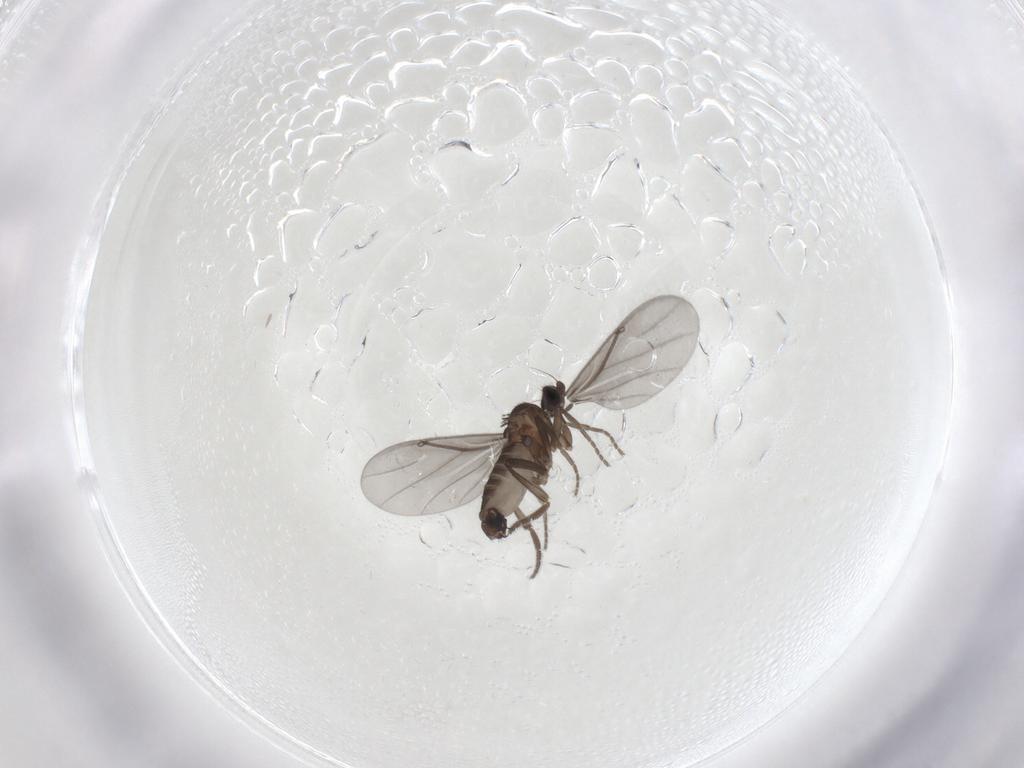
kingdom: Animalia
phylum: Arthropoda
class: Insecta
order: Diptera
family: Phoridae
